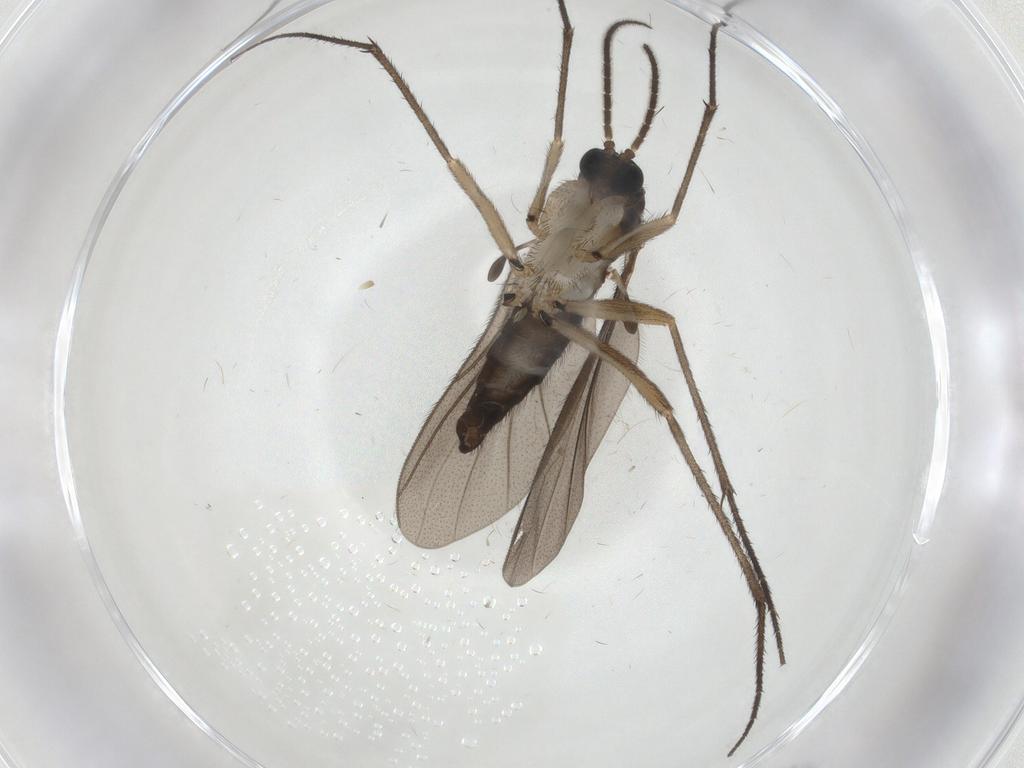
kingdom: Animalia
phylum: Arthropoda
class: Insecta
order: Diptera
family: Sciaridae
